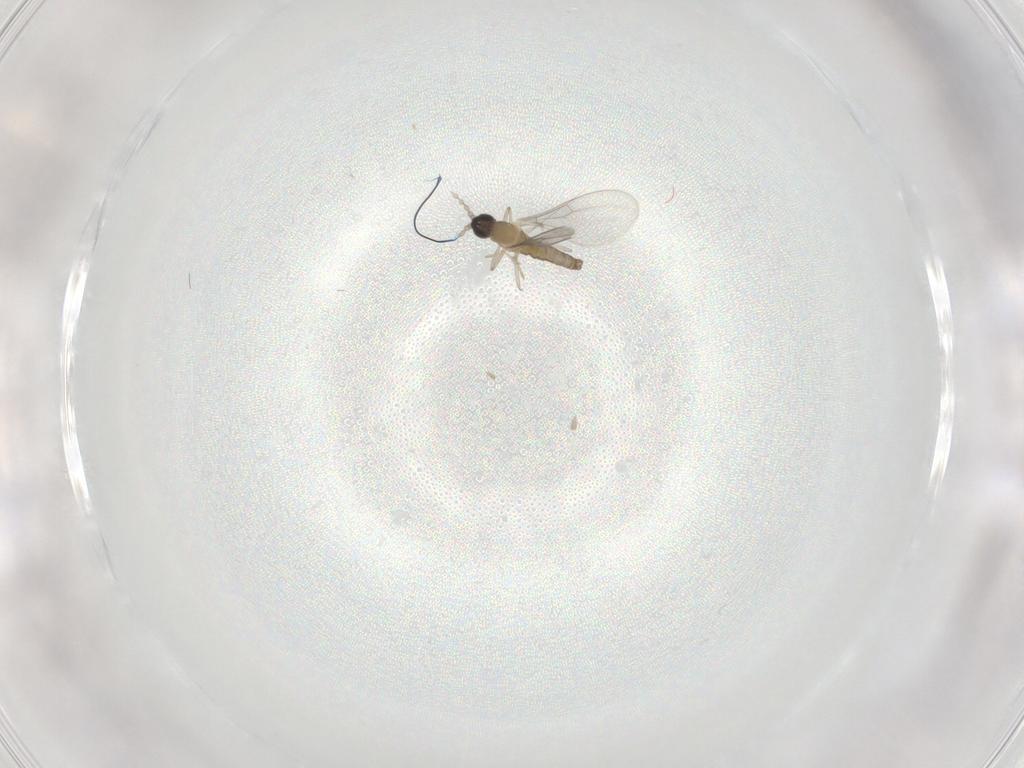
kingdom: Animalia
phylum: Arthropoda
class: Insecta
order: Diptera
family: Cecidomyiidae
